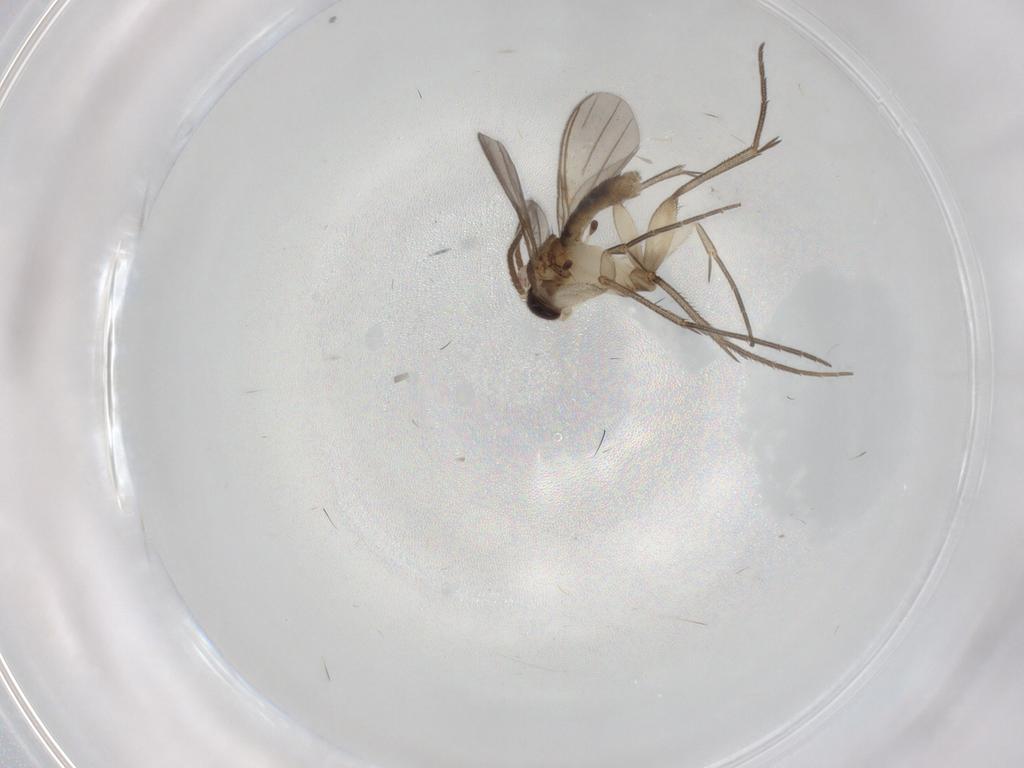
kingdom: Animalia
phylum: Arthropoda
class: Insecta
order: Diptera
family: Mycetophilidae
